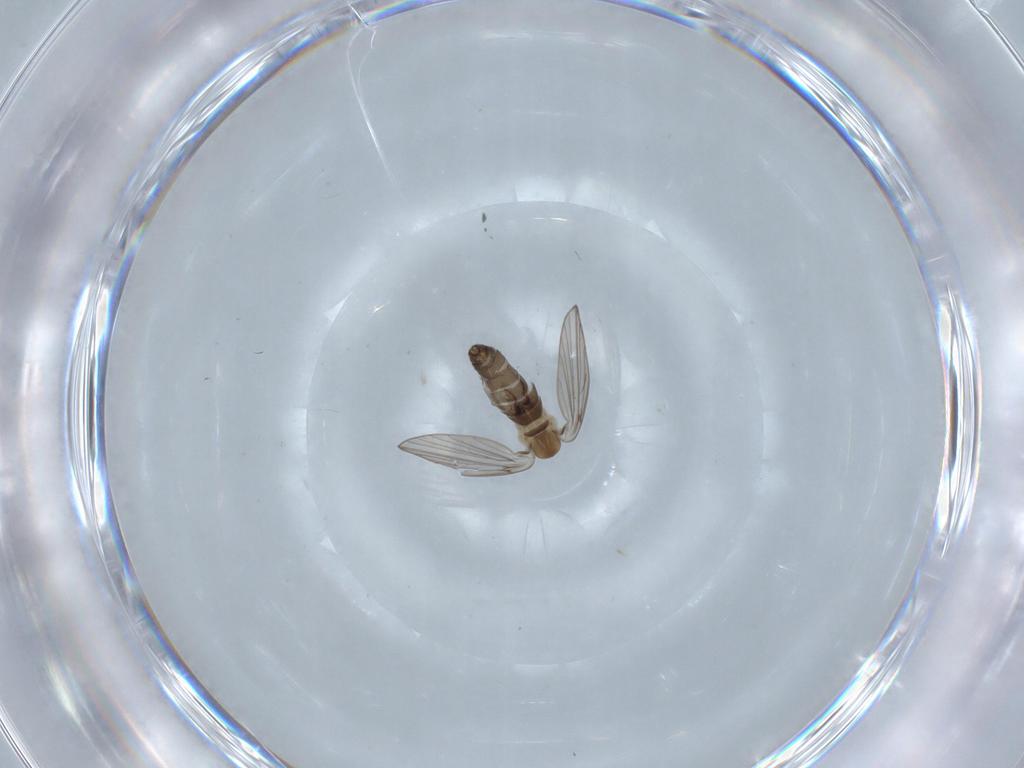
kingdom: Animalia
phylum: Arthropoda
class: Insecta
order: Diptera
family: Psychodidae
